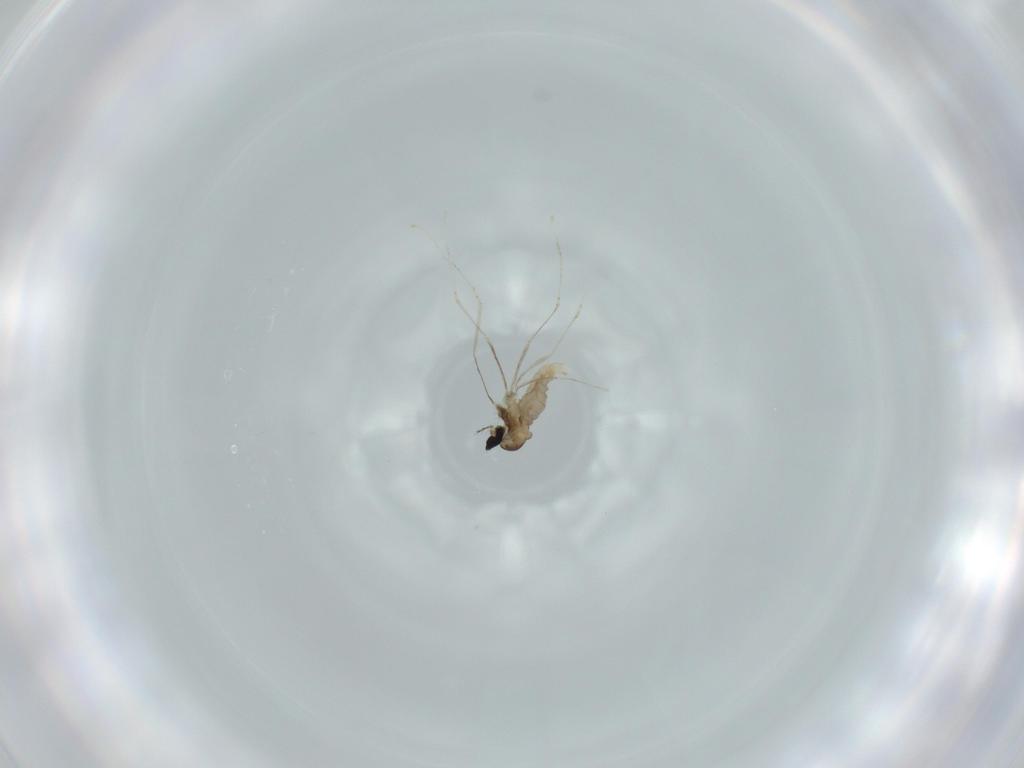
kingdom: Animalia
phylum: Arthropoda
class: Insecta
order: Diptera
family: Cecidomyiidae
